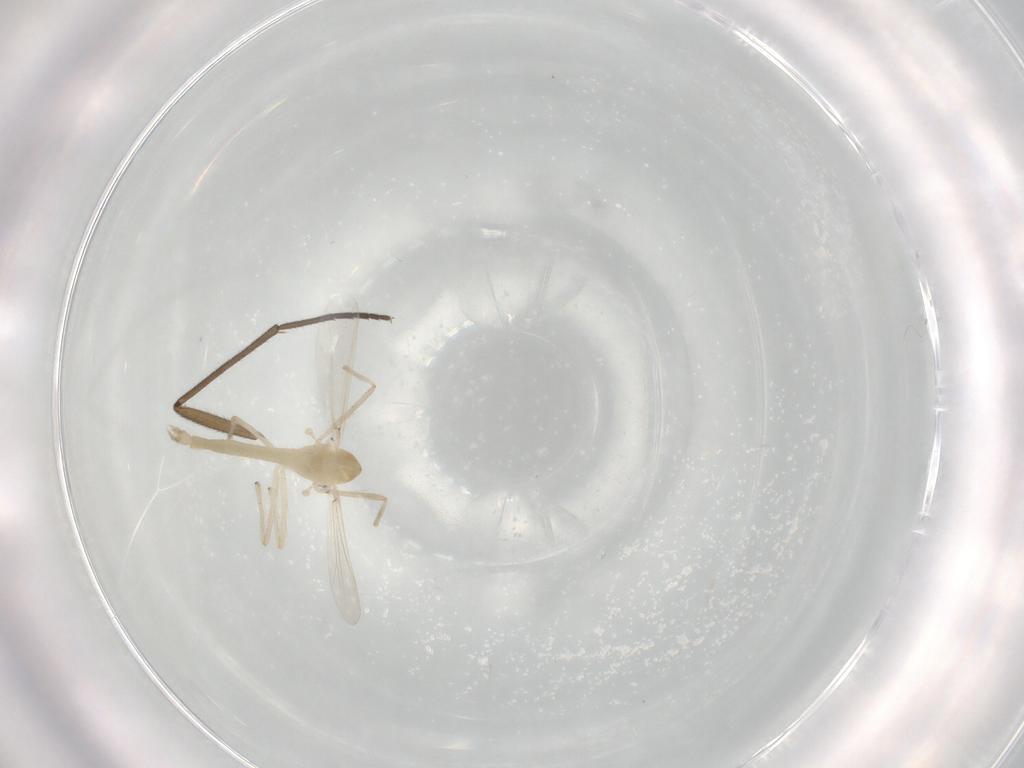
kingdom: Animalia
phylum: Arthropoda
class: Insecta
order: Diptera
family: Chironomidae
